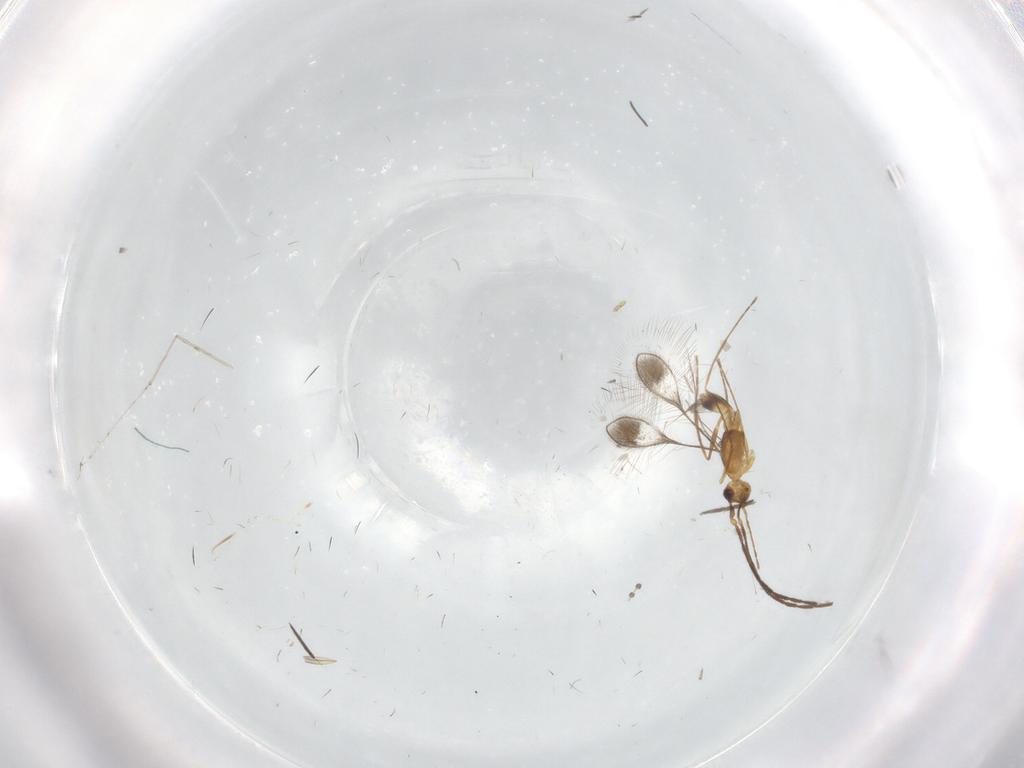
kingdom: Animalia
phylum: Arthropoda
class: Insecta
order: Hymenoptera
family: Mymaridae
